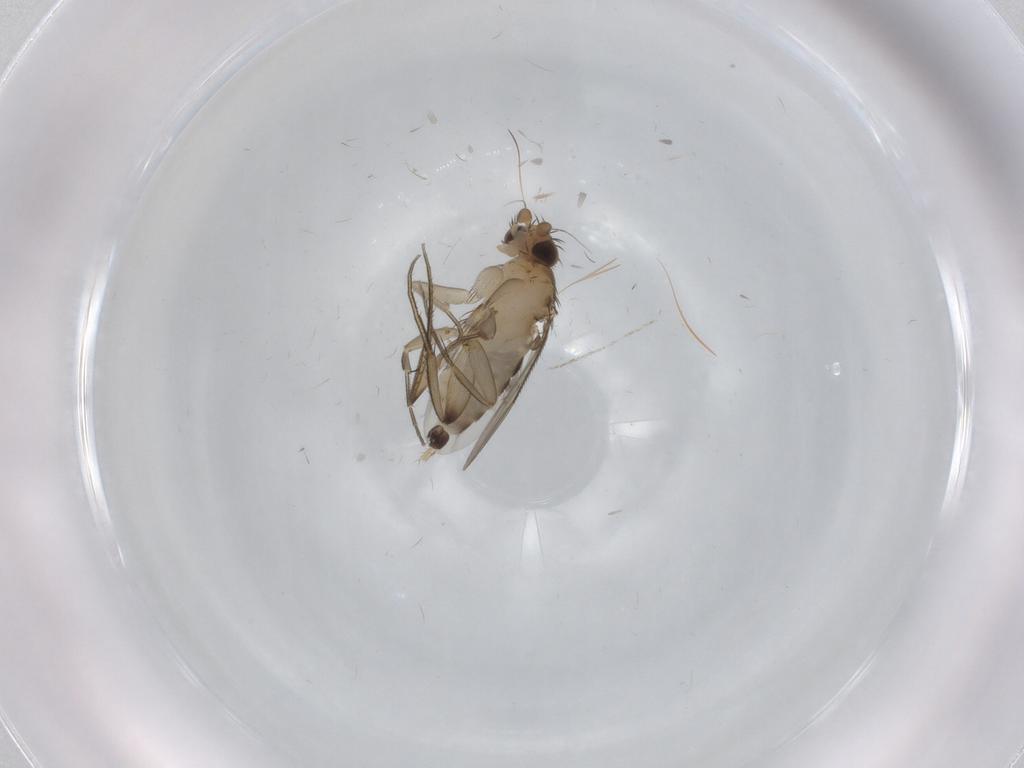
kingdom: Animalia
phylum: Arthropoda
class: Insecta
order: Diptera
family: Phoridae
